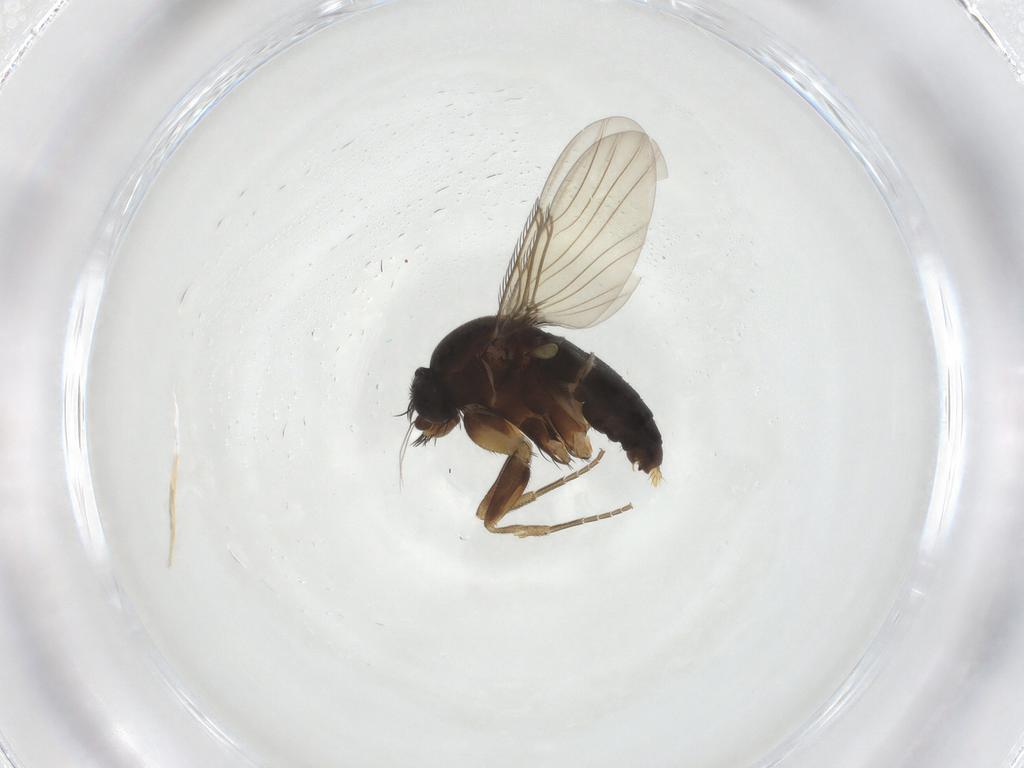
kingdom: Animalia
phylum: Arthropoda
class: Insecta
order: Diptera
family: Phoridae
